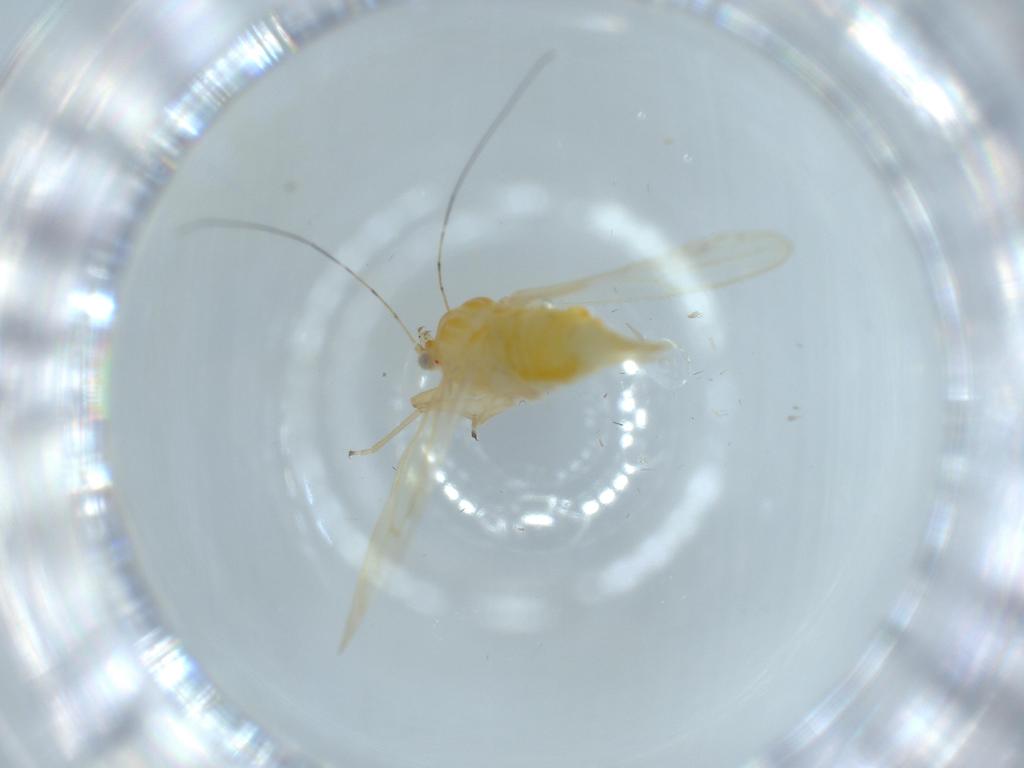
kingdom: Animalia
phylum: Arthropoda
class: Insecta
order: Hemiptera
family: Psyllidae
